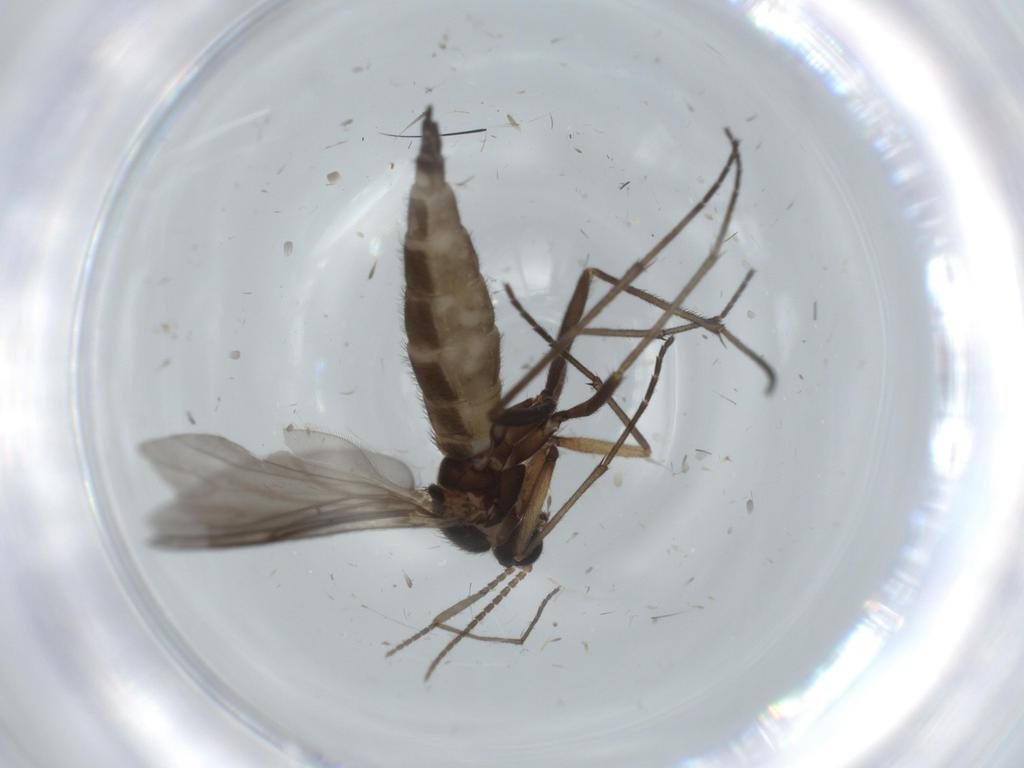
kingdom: Animalia
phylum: Arthropoda
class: Insecta
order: Diptera
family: Sciaridae
